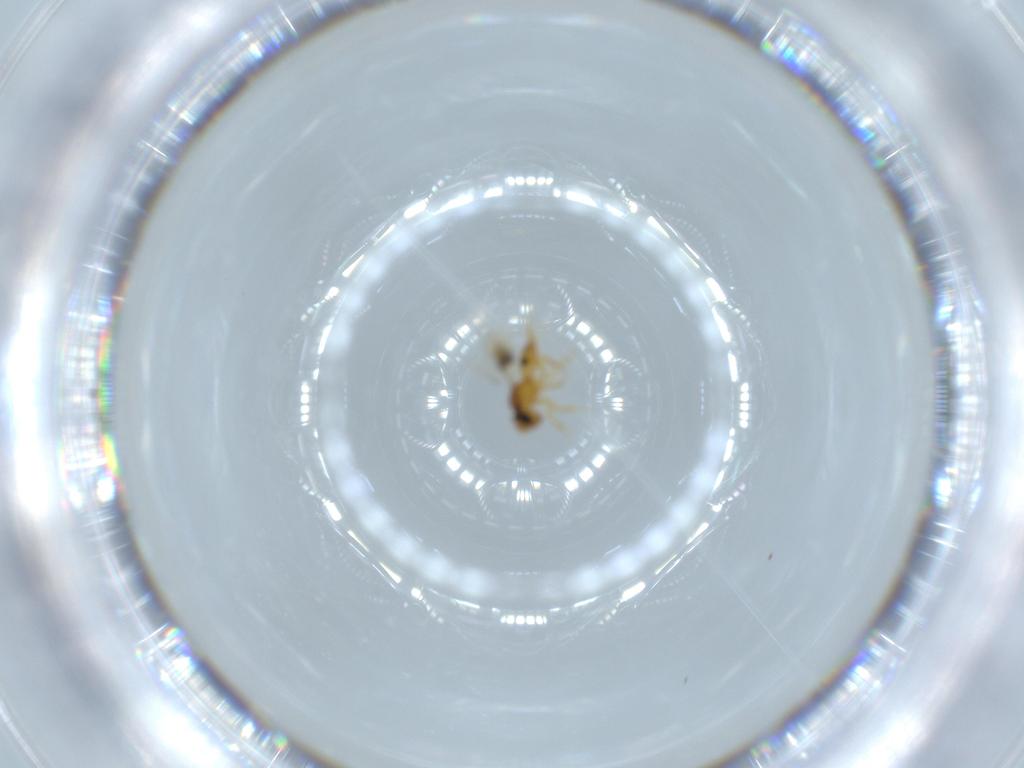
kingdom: Animalia
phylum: Arthropoda
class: Insecta
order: Hymenoptera
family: Scelionidae
